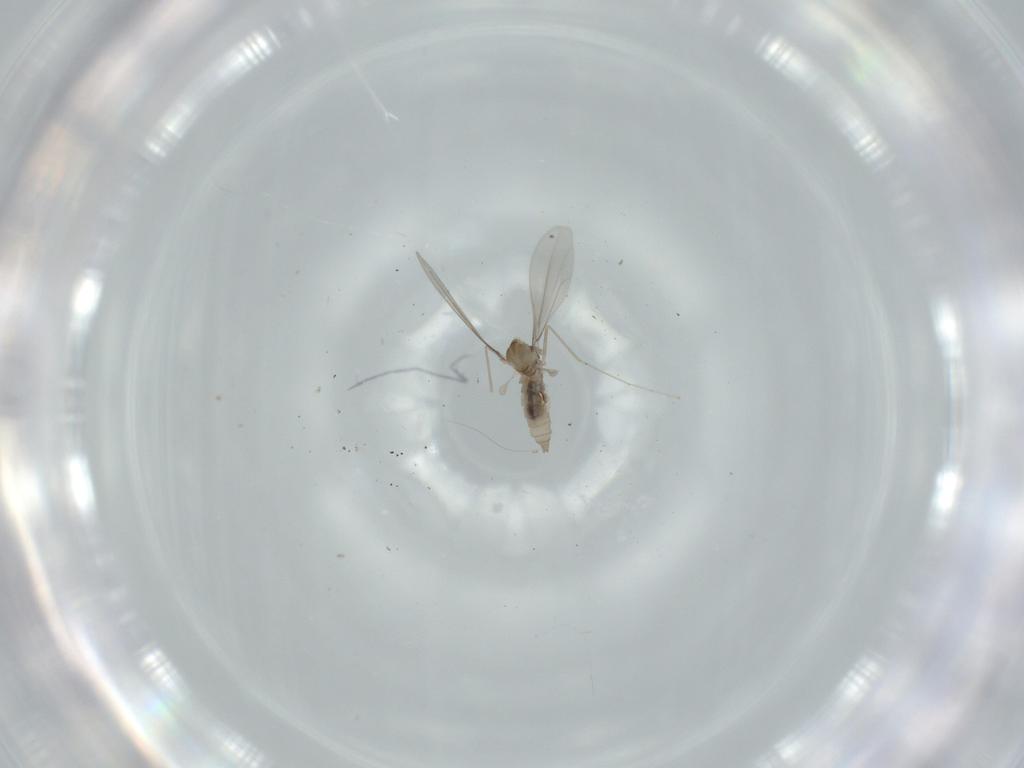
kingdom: Animalia
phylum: Arthropoda
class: Insecta
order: Diptera
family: Cecidomyiidae
